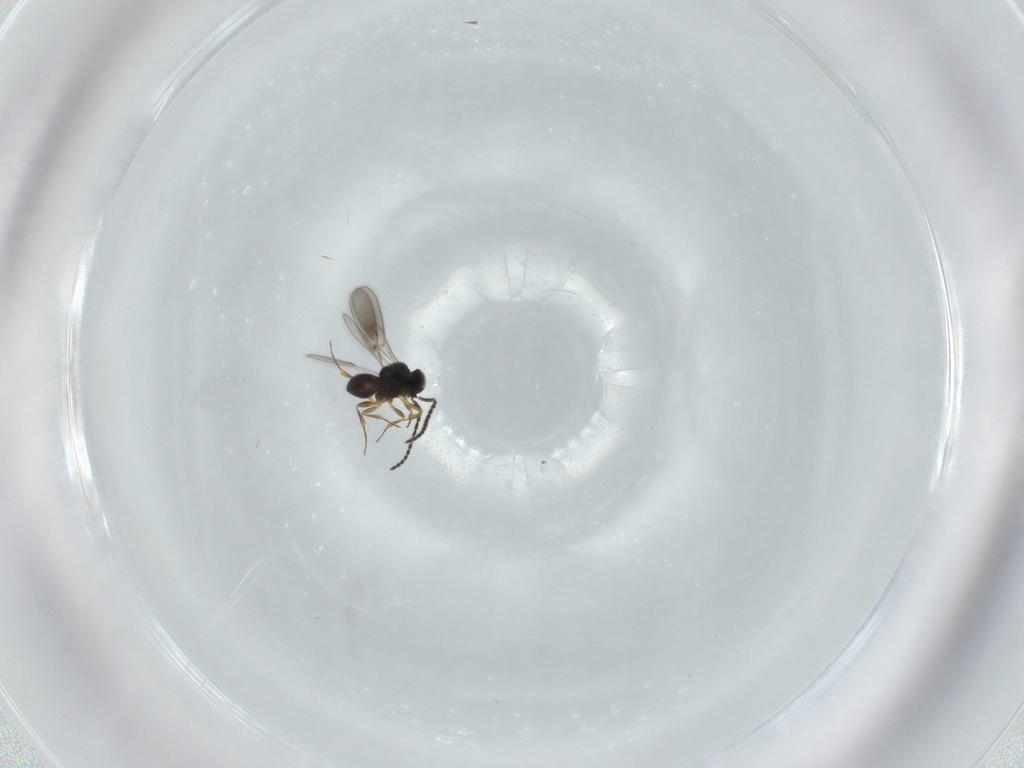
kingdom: Animalia
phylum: Arthropoda
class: Insecta
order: Hymenoptera
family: Scelionidae
